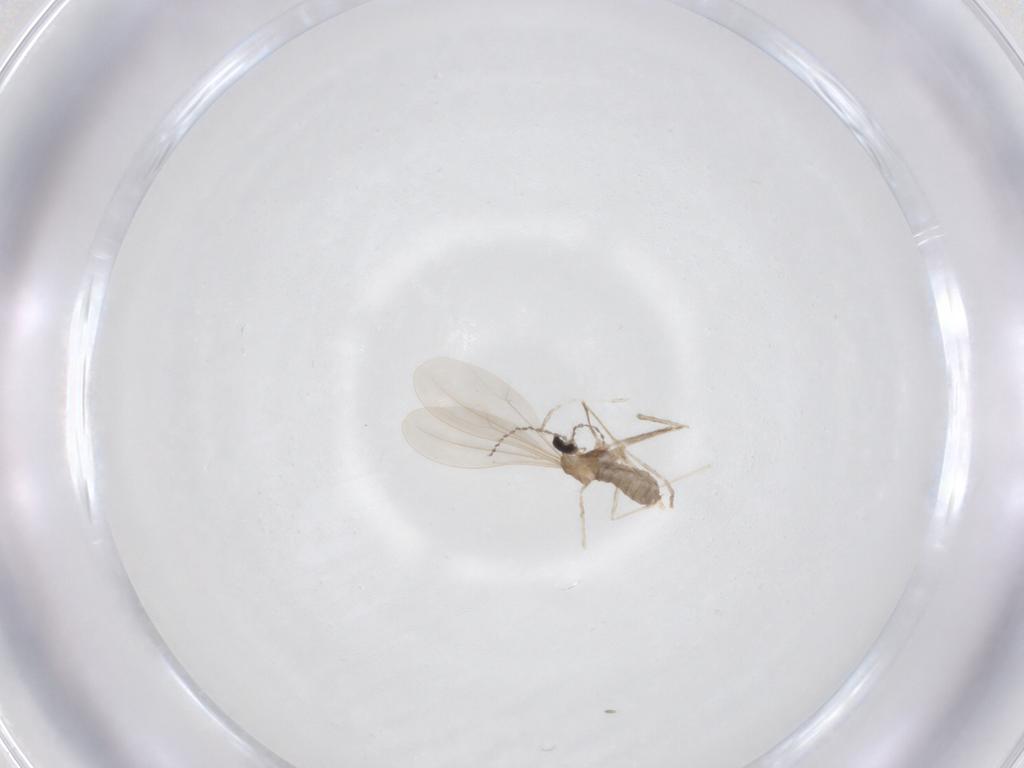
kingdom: Animalia
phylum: Arthropoda
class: Insecta
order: Diptera
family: Cecidomyiidae
